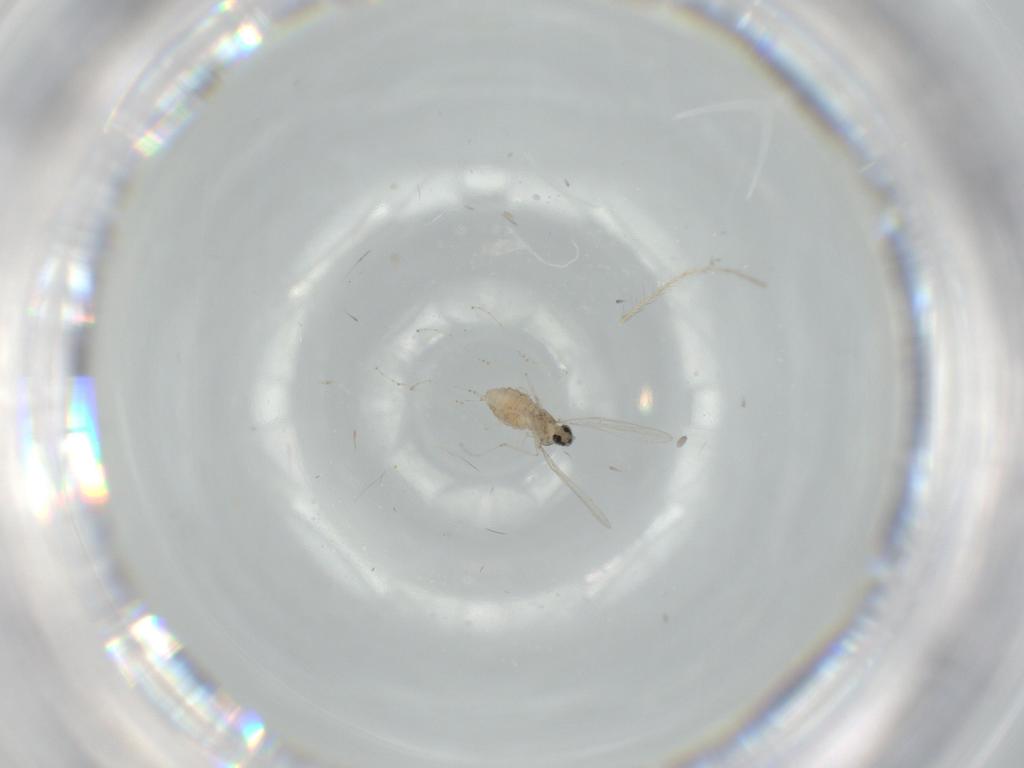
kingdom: Animalia
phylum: Arthropoda
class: Insecta
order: Diptera
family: Cecidomyiidae
